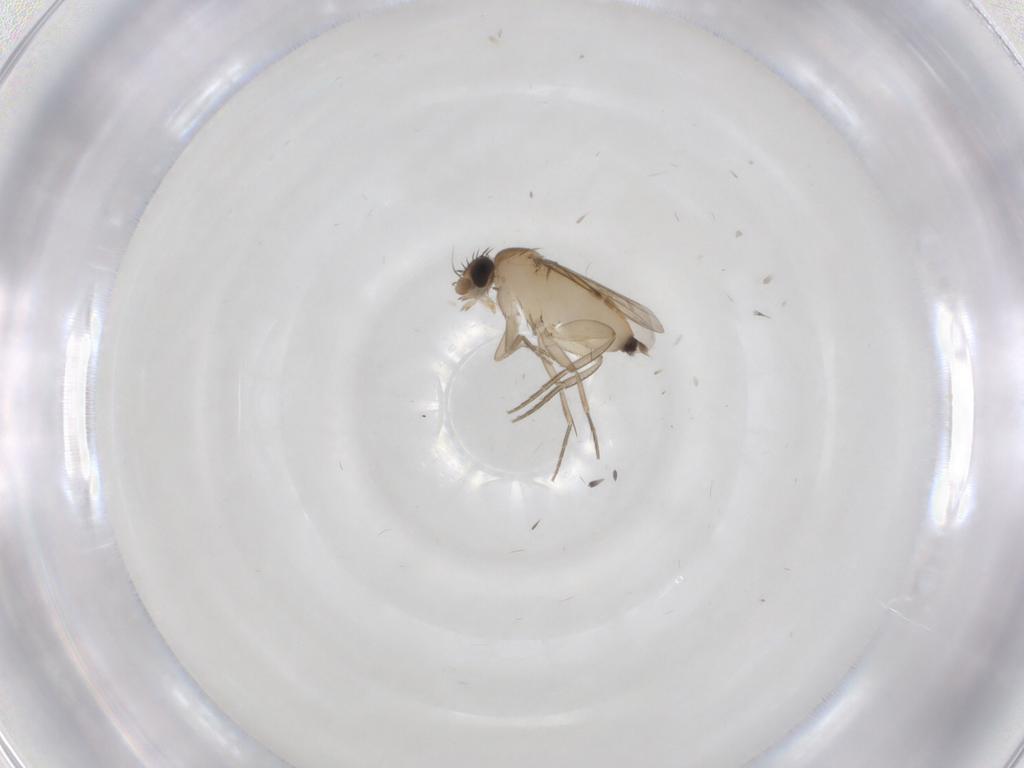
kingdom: Animalia
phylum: Arthropoda
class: Insecta
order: Diptera
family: Phoridae
